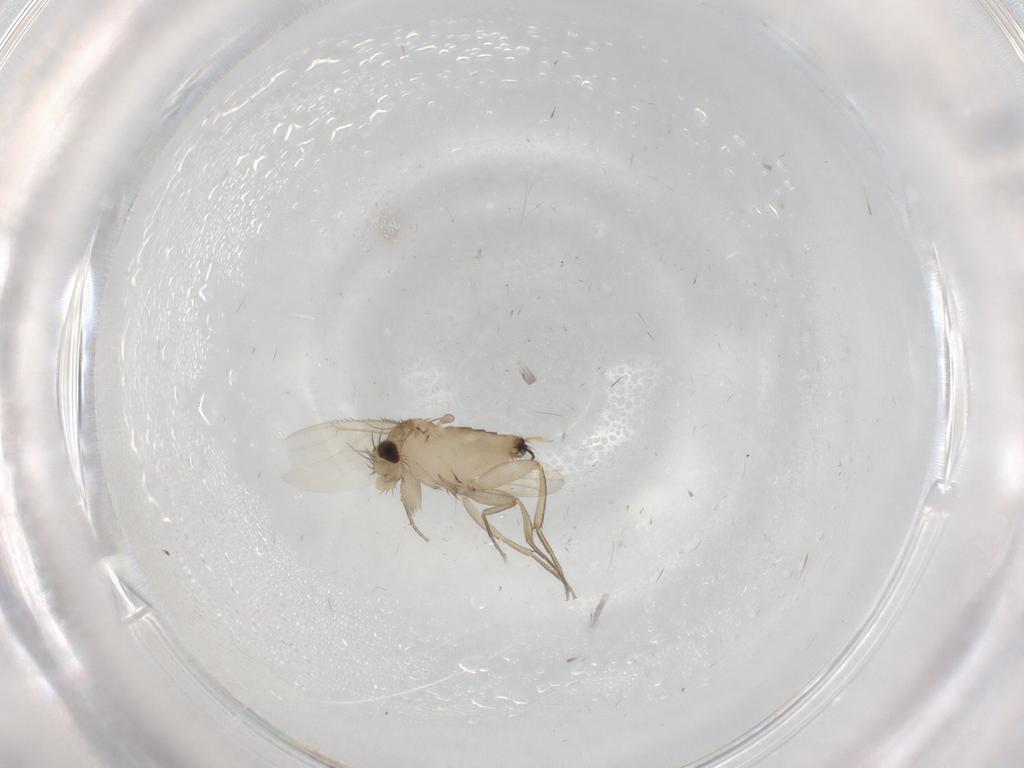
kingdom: Animalia
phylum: Arthropoda
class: Insecta
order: Diptera
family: Phoridae
